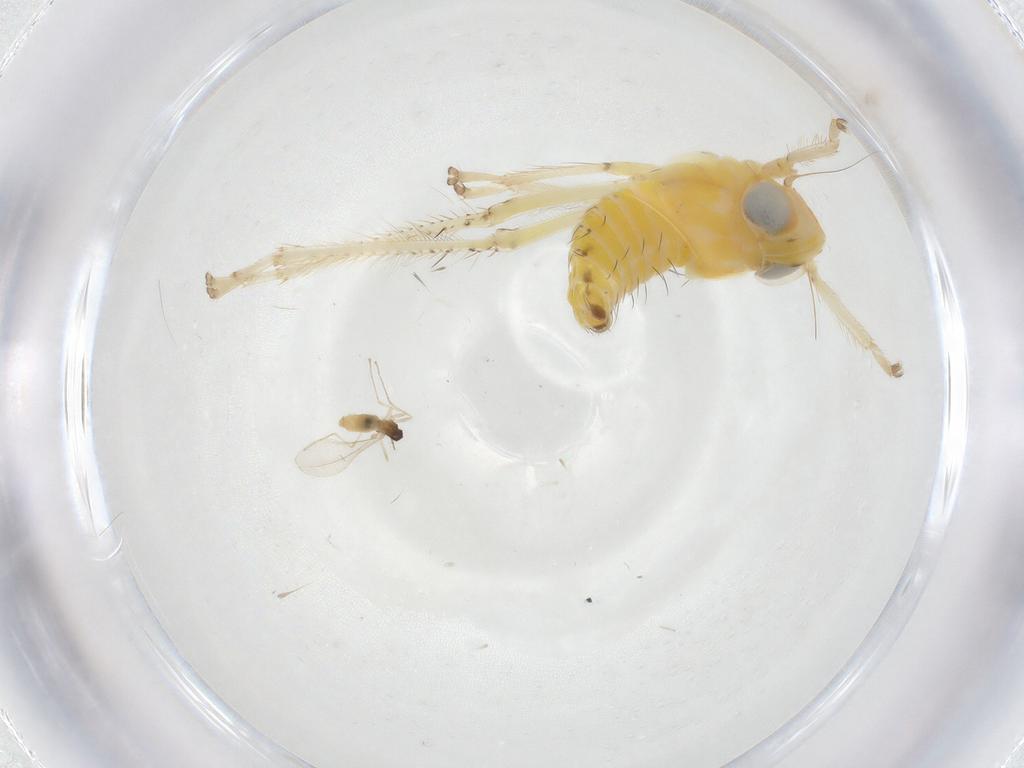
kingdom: Animalia
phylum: Arthropoda
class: Insecta
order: Diptera
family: Cecidomyiidae
